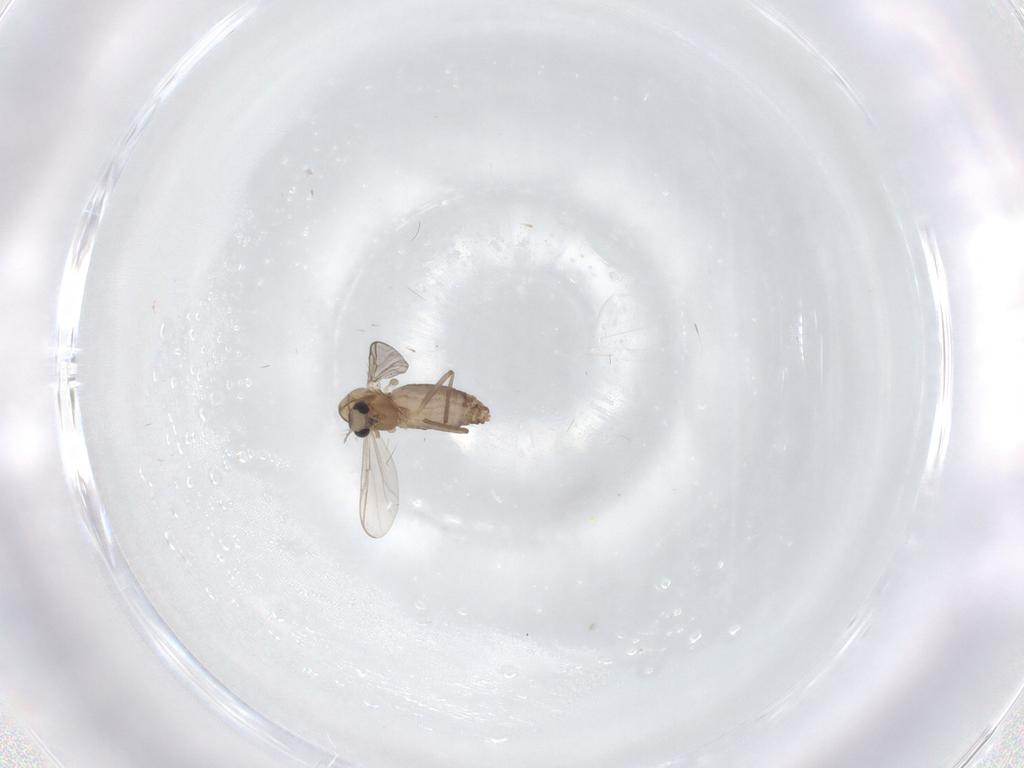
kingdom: Animalia
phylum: Arthropoda
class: Insecta
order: Diptera
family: Chironomidae
